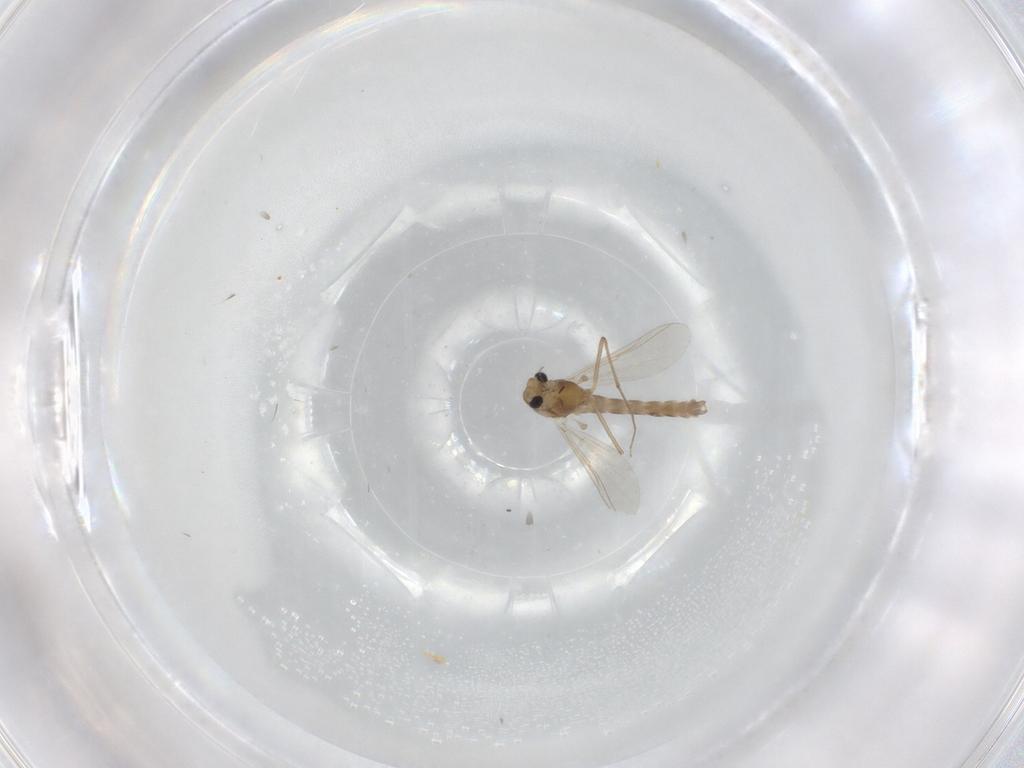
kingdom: Animalia
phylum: Arthropoda
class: Insecta
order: Diptera
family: Chironomidae
